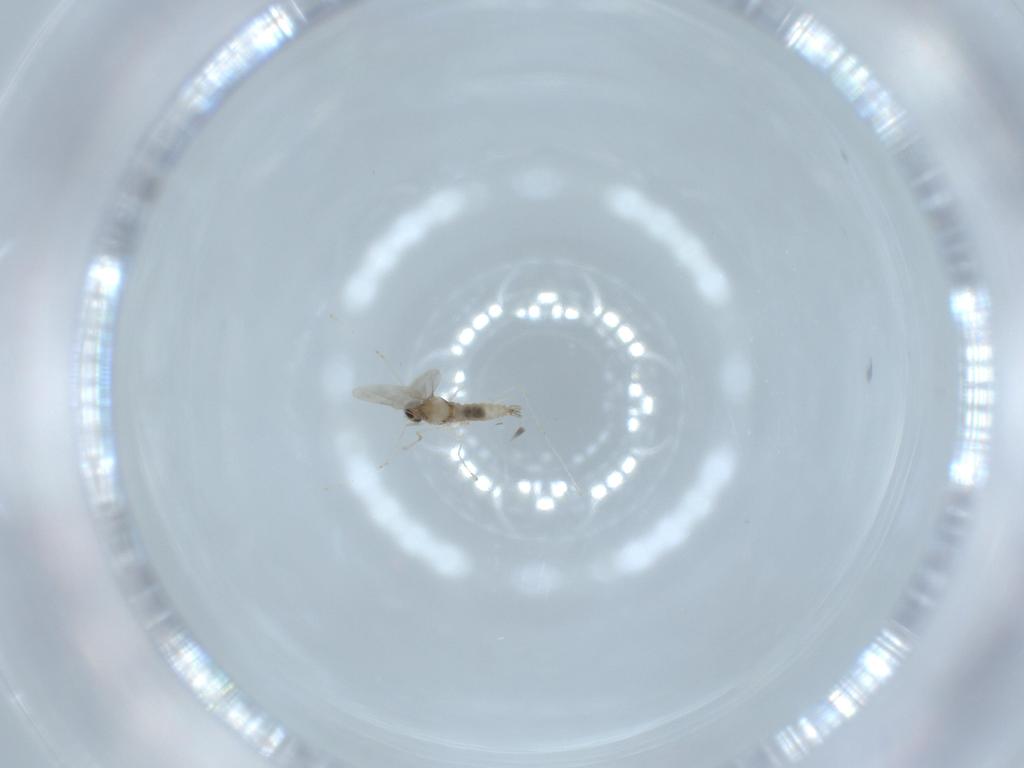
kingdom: Animalia
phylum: Arthropoda
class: Insecta
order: Diptera
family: Cecidomyiidae
